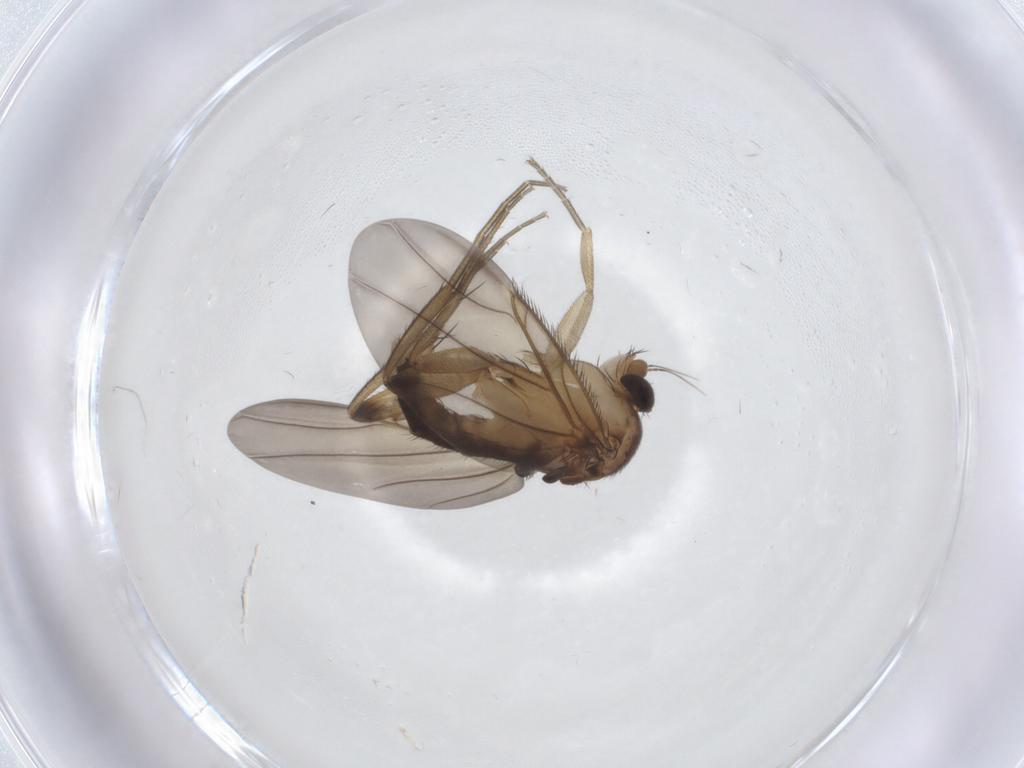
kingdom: Animalia
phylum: Arthropoda
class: Insecta
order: Diptera
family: Phoridae
